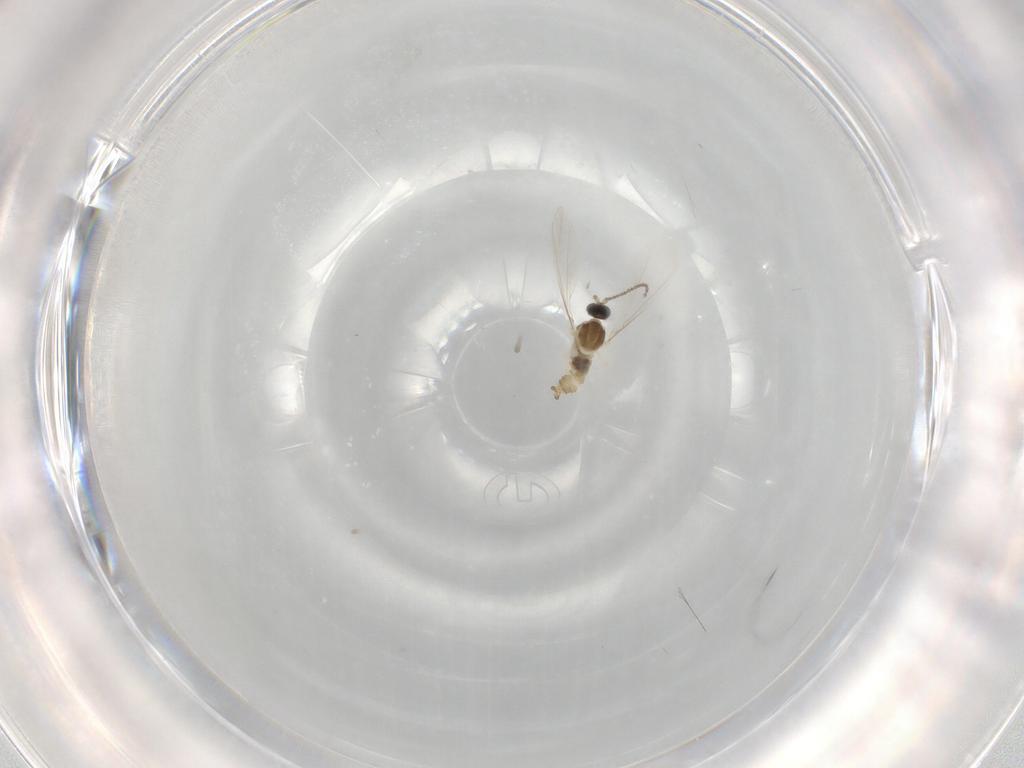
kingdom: Animalia
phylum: Arthropoda
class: Insecta
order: Diptera
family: Cecidomyiidae
